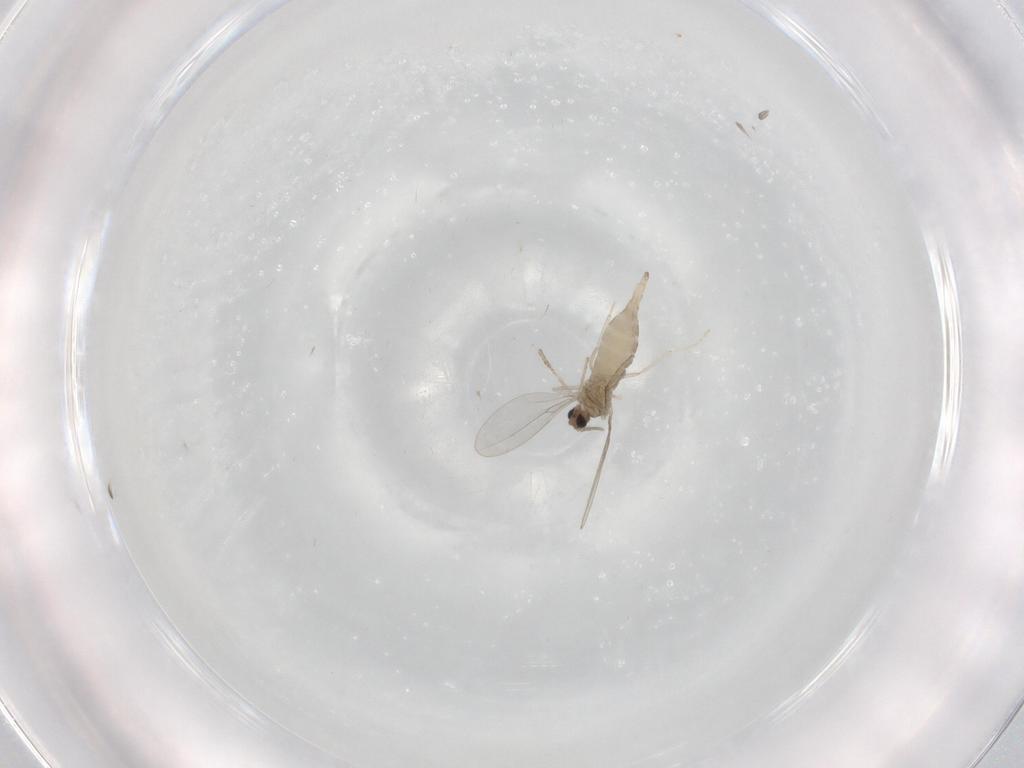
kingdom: Animalia
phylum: Arthropoda
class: Insecta
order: Diptera
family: Cecidomyiidae
